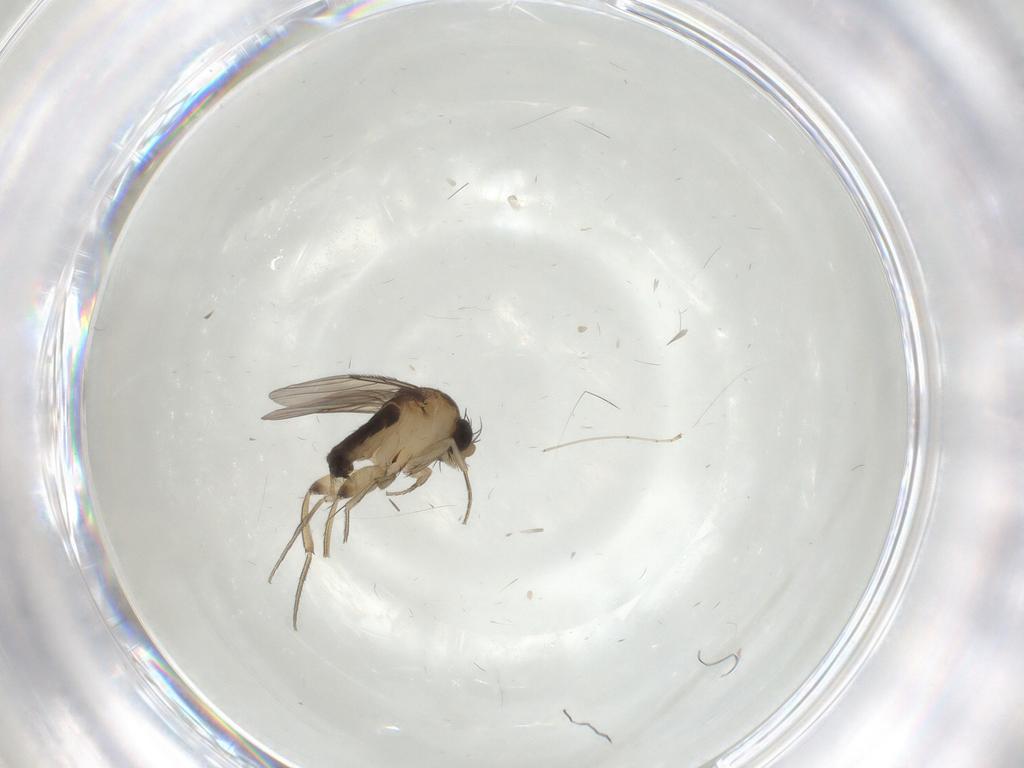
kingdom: Animalia
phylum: Arthropoda
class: Insecta
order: Diptera
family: Phoridae
